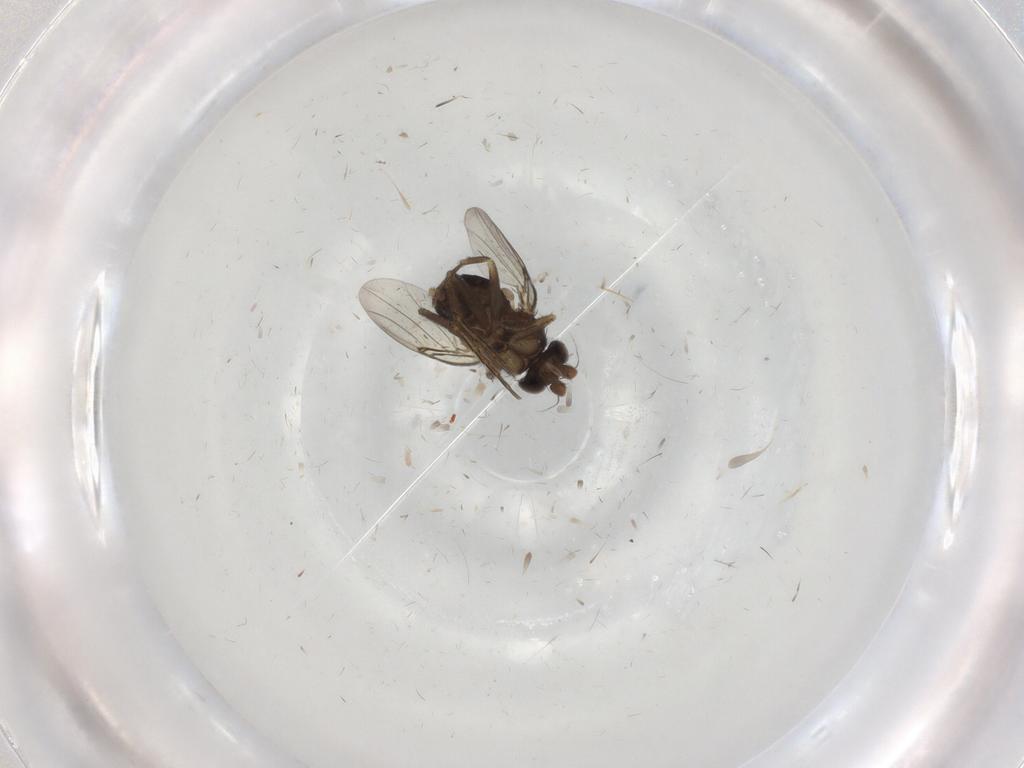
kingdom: Animalia
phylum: Arthropoda
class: Insecta
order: Diptera
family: Phoridae
